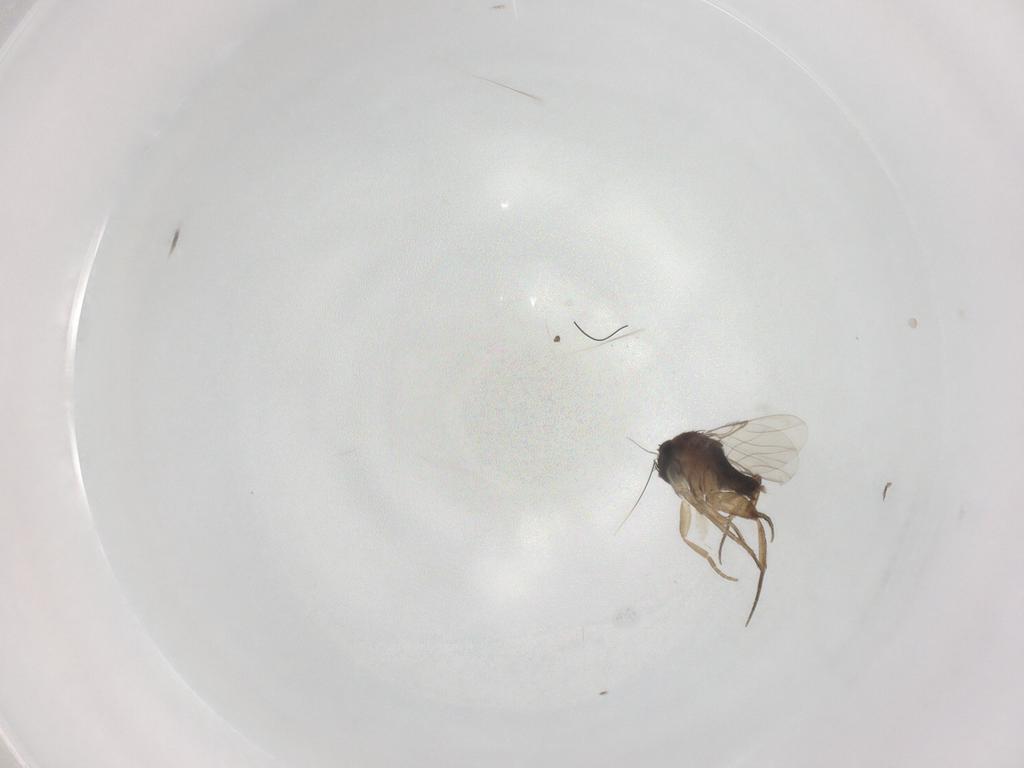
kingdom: Animalia
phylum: Arthropoda
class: Insecta
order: Diptera
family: Phoridae
